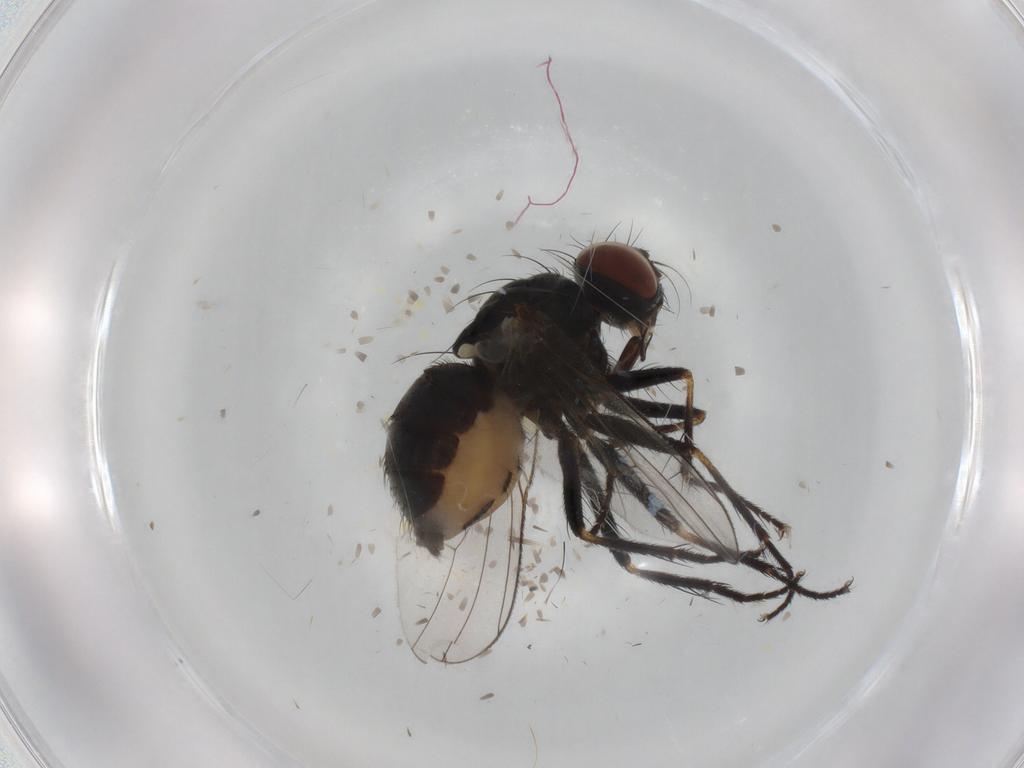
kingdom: Animalia
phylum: Arthropoda
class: Insecta
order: Diptera
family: Muscidae
